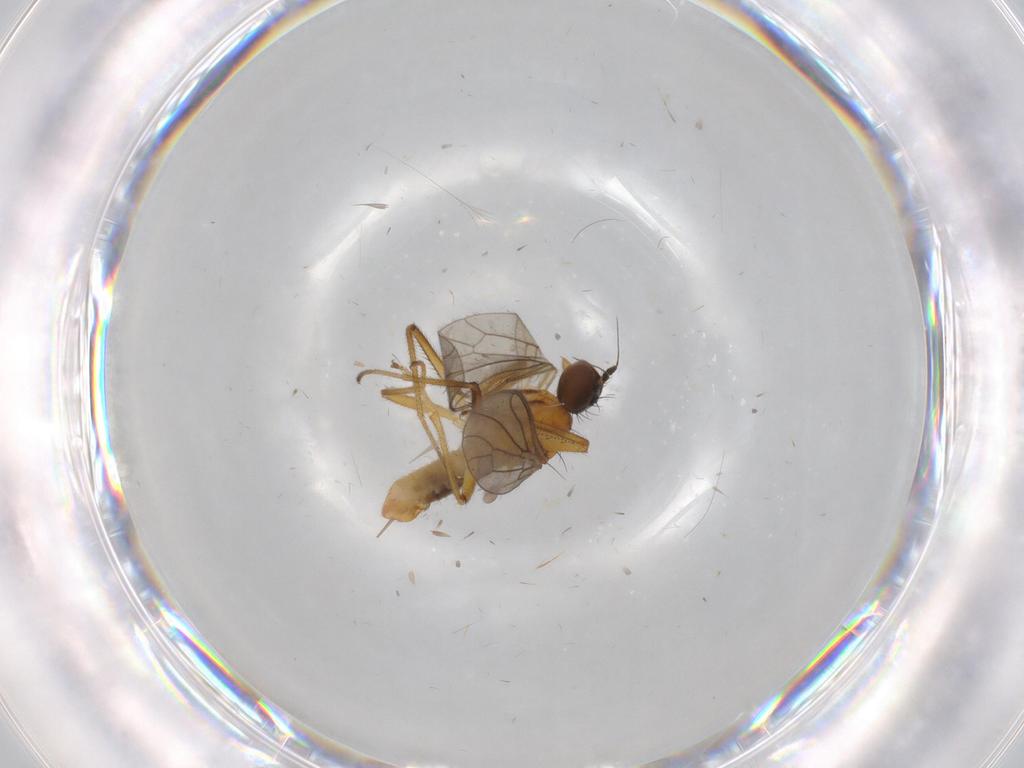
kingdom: Animalia
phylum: Arthropoda
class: Insecta
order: Diptera
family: Empididae
